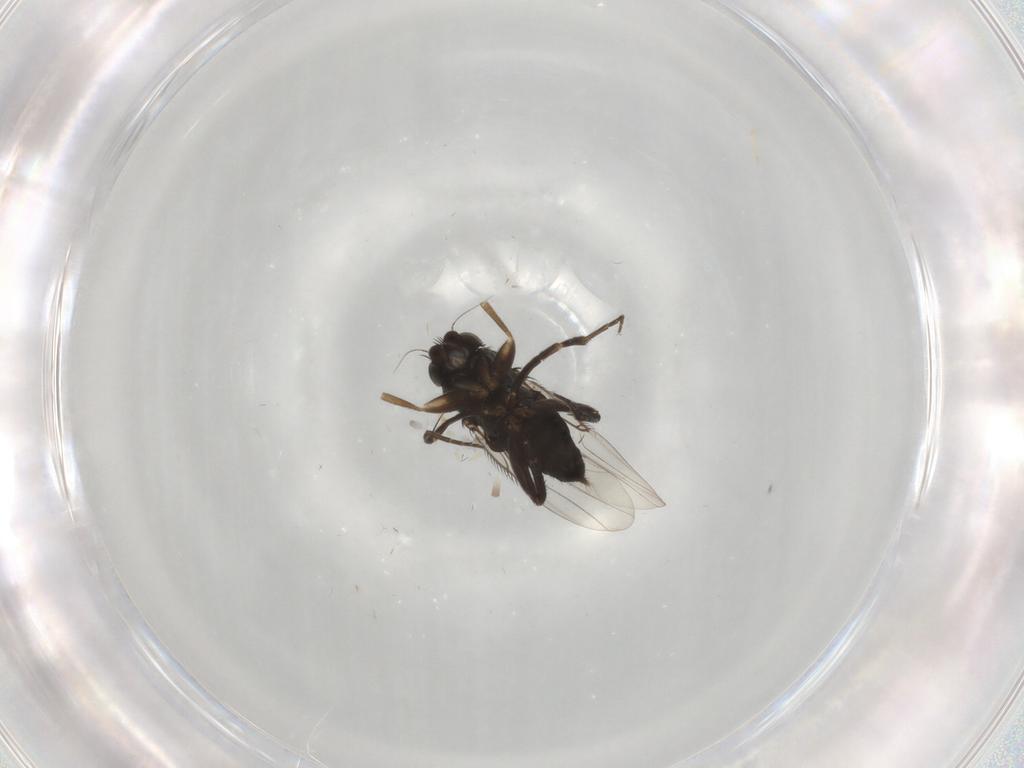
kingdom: Animalia
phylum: Arthropoda
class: Insecta
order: Diptera
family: Phoridae
